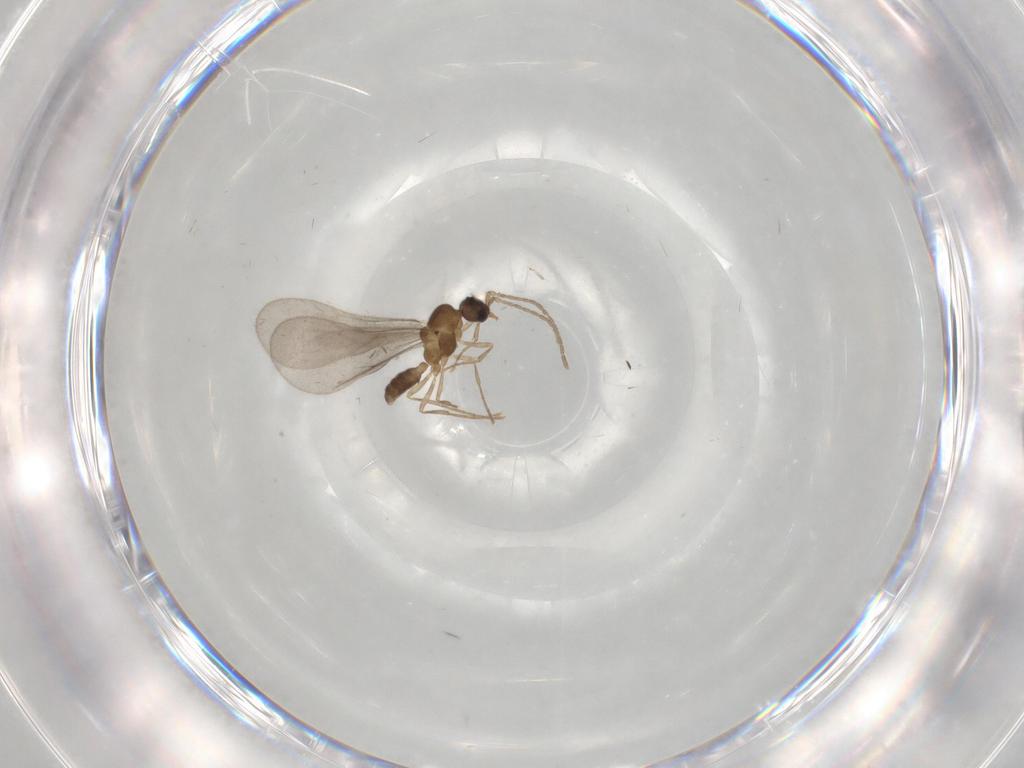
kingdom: Animalia
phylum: Arthropoda
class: Insecta
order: Hymenoptera
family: Formicidae
